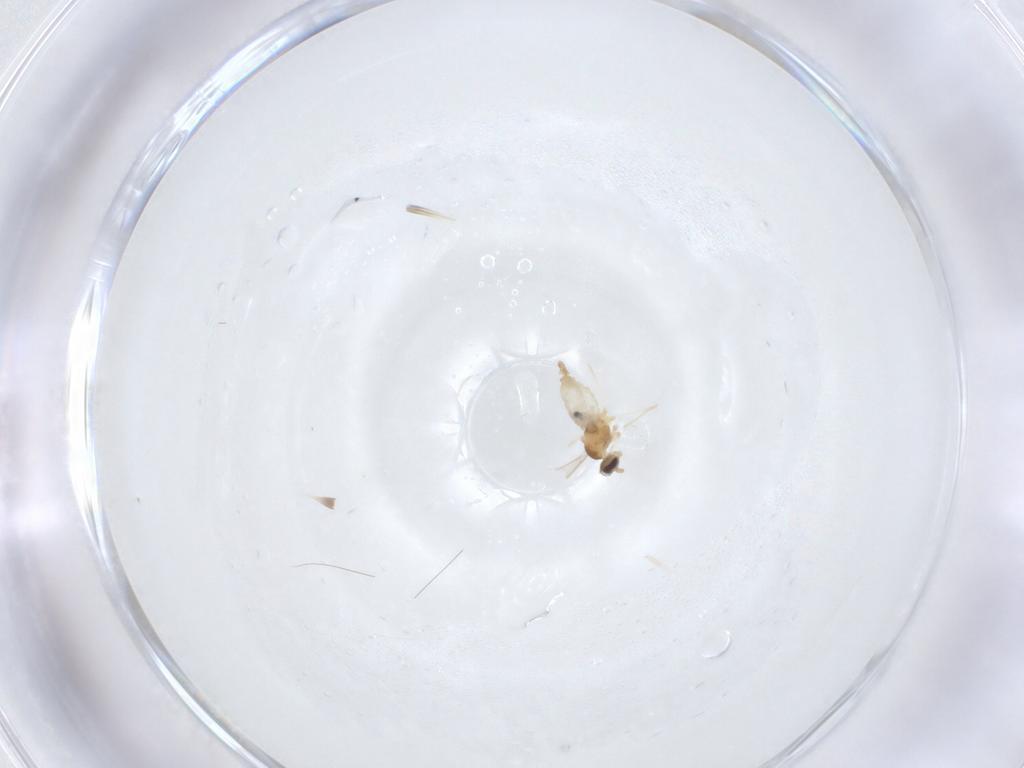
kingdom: Animalia
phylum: Arthropoda
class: Insecta
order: Diptera
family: Cecidomyiidae
